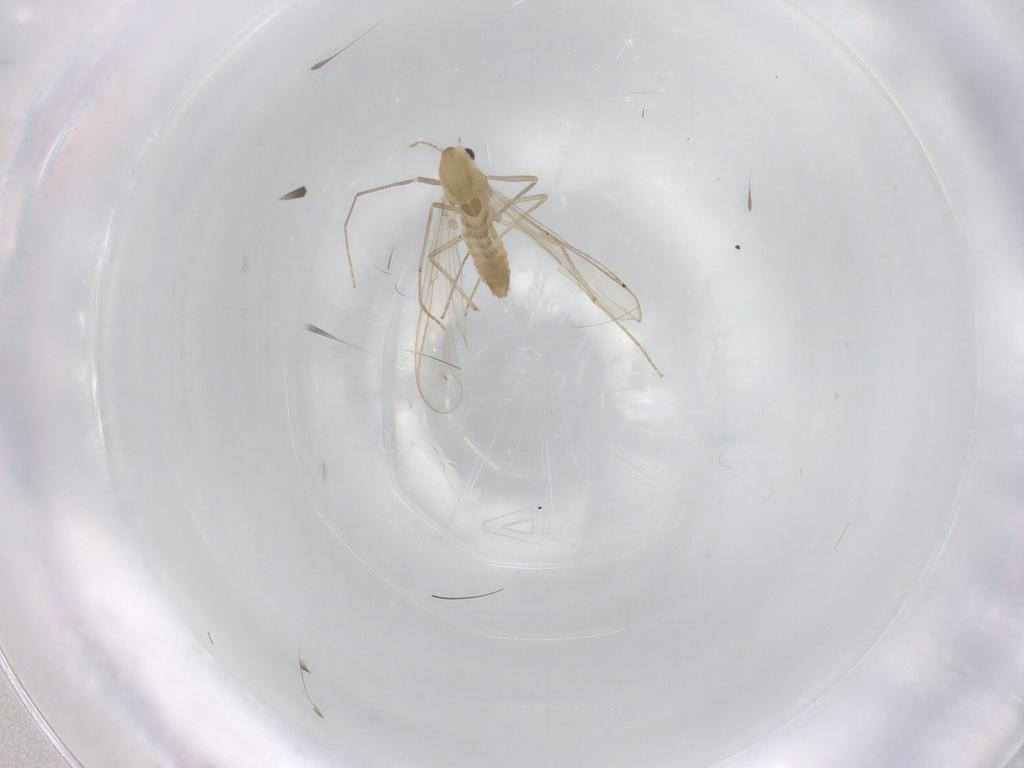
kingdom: Animalia
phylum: Arthropoda
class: Insecta
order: Diptera
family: Chironomidae
